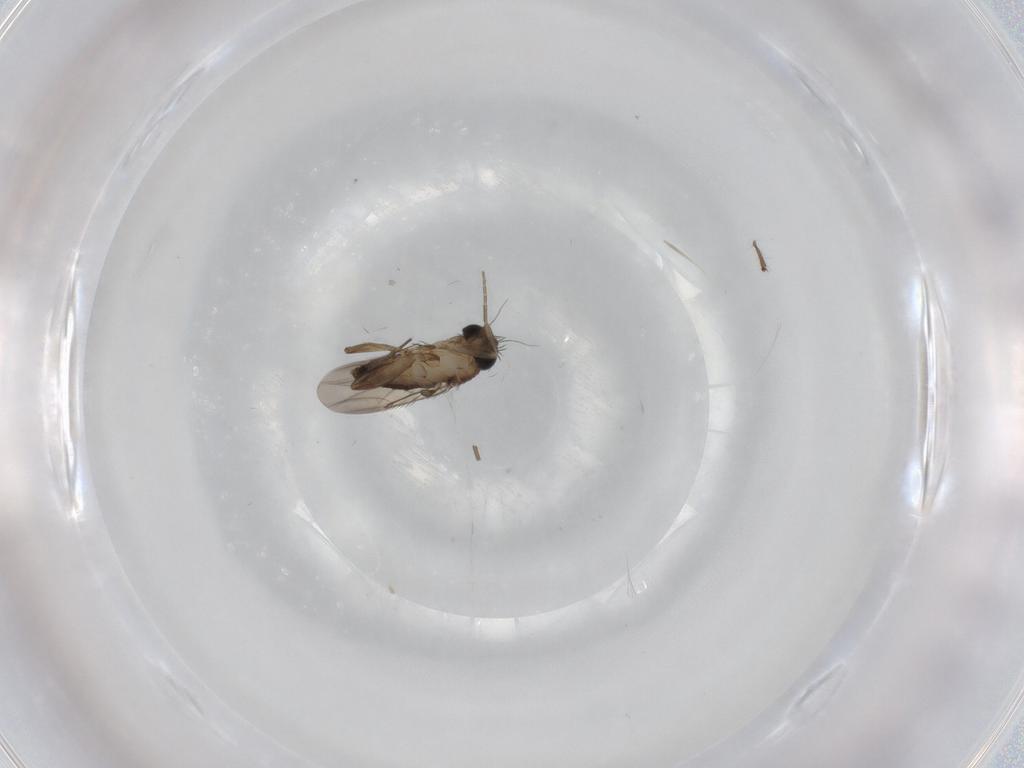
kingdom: Animalia
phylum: Arthropoda
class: Insecta
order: Diptera
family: Phoridae
